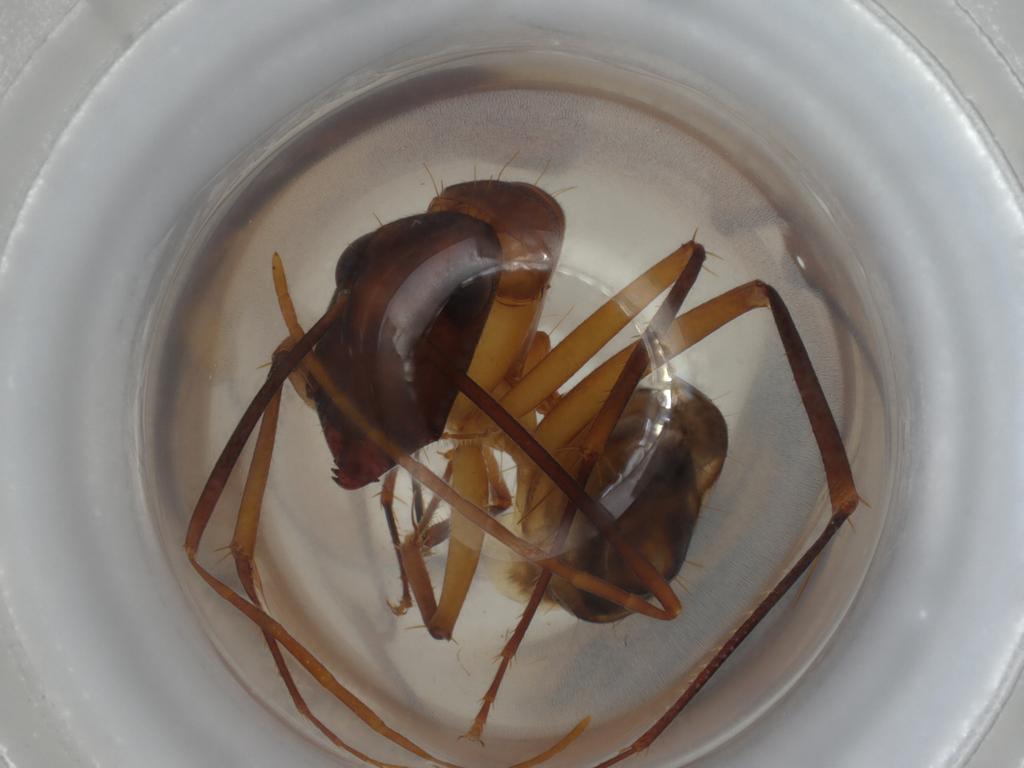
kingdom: Animalia
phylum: Arthropoda
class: Insecta
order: Hymenoptera
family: Formicidae
